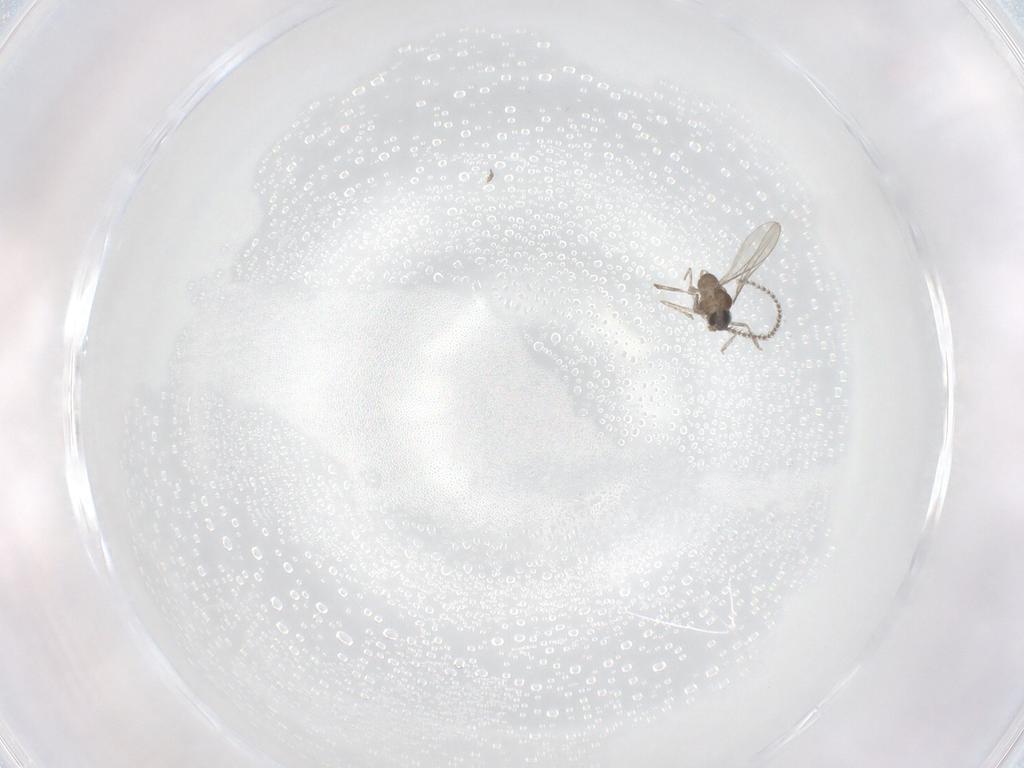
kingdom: Animalia
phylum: Arthropoda
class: Insecta
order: Diptera
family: Cecidomyiidae
